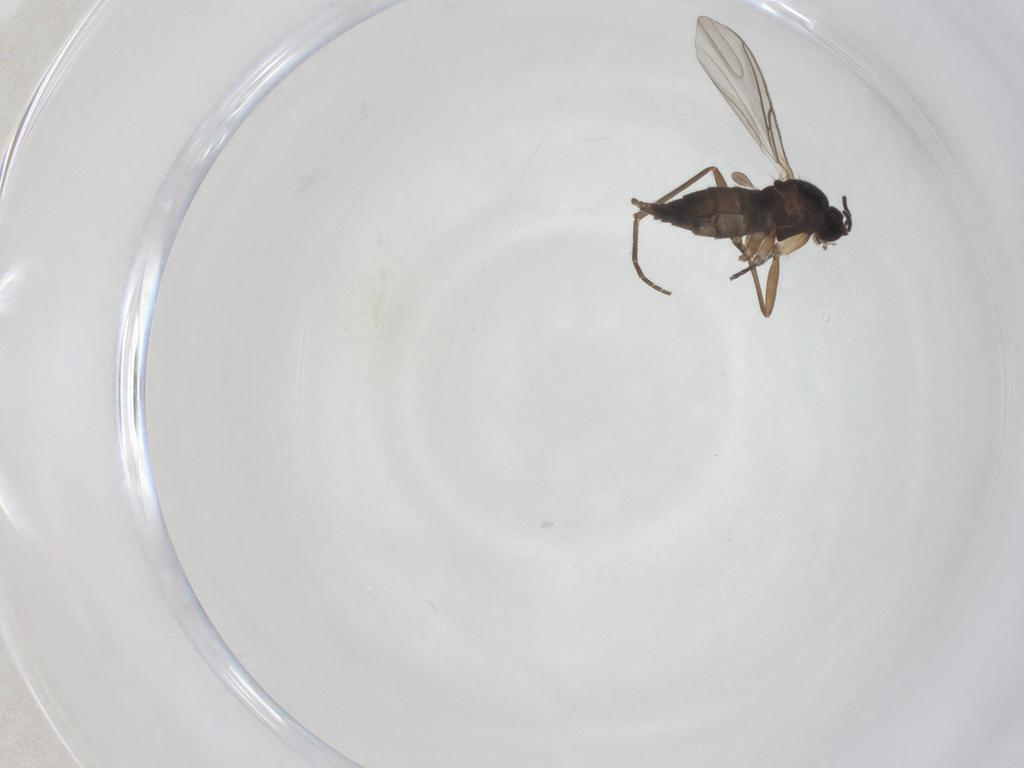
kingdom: Animalia
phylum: Arthropoda
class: Insecta
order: Diptera
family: Sciaridae
